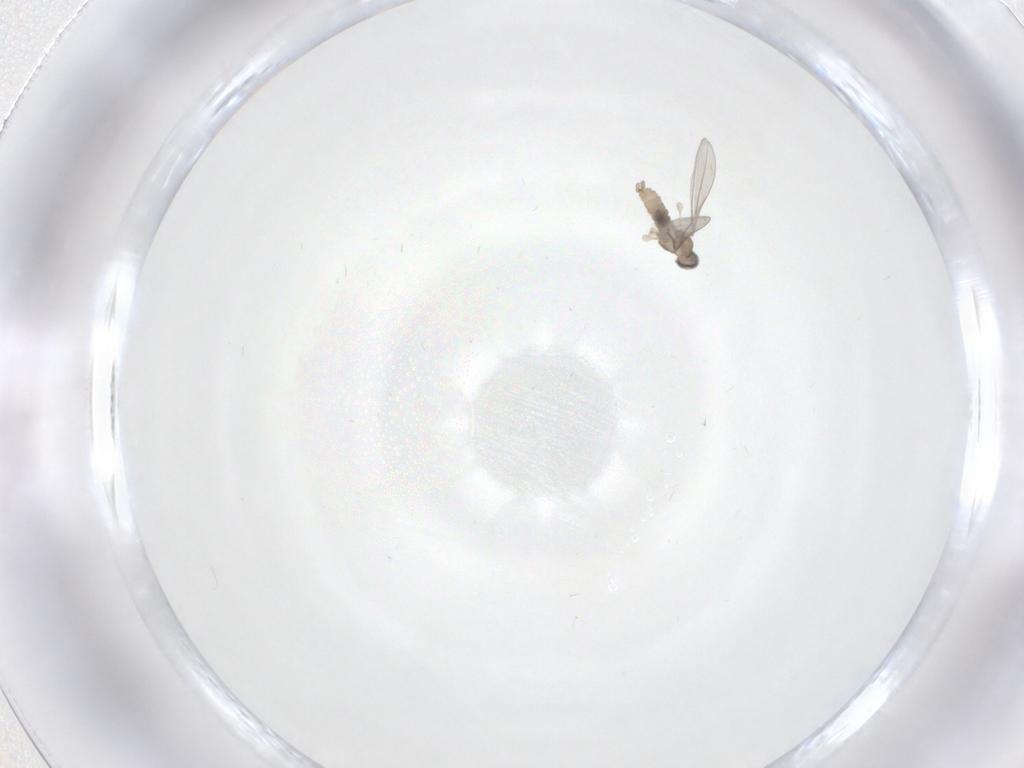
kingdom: Animalia
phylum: Arthropoda
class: Insecta
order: Diptera
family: Cecidomyiidae
